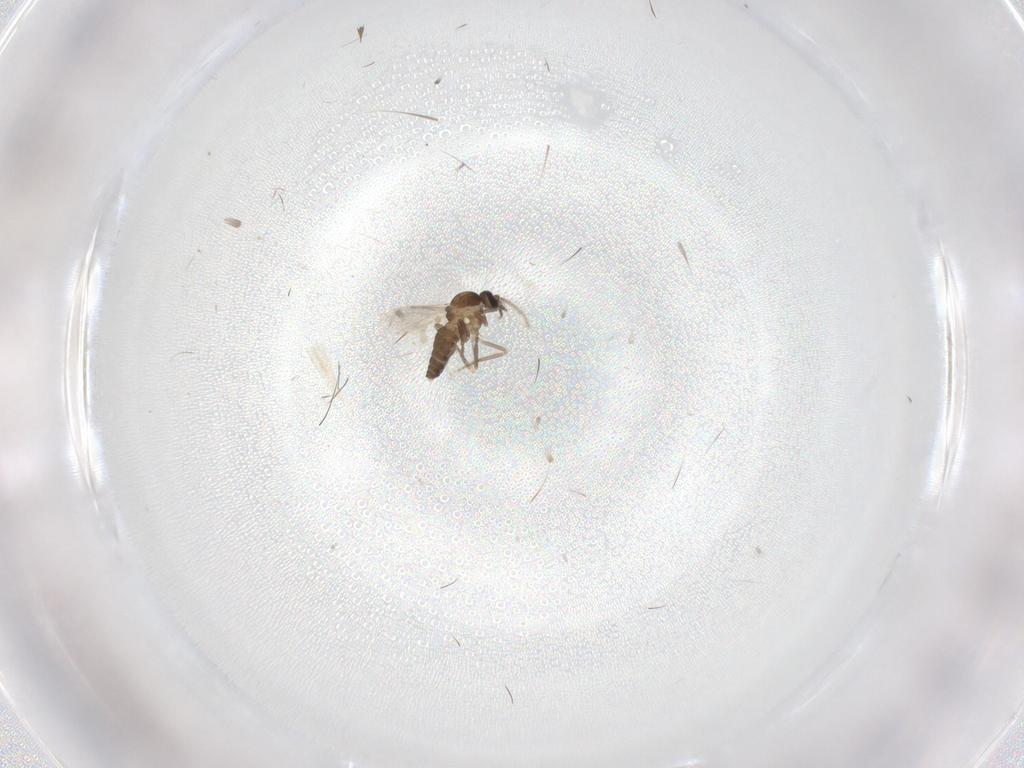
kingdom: Animalia
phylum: Arthropoda
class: Insecta
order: Diptera
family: Ceratopogonidae
